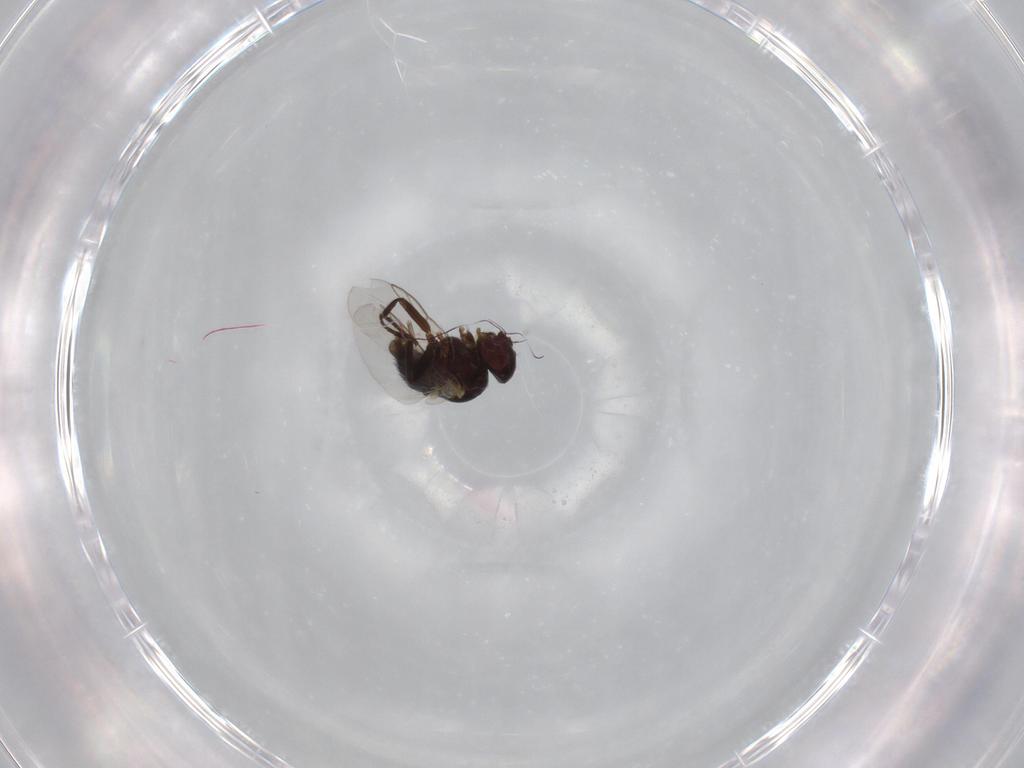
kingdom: Animalia
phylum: Arthropoda
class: Insecta
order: Diptera
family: Agromyzidae
